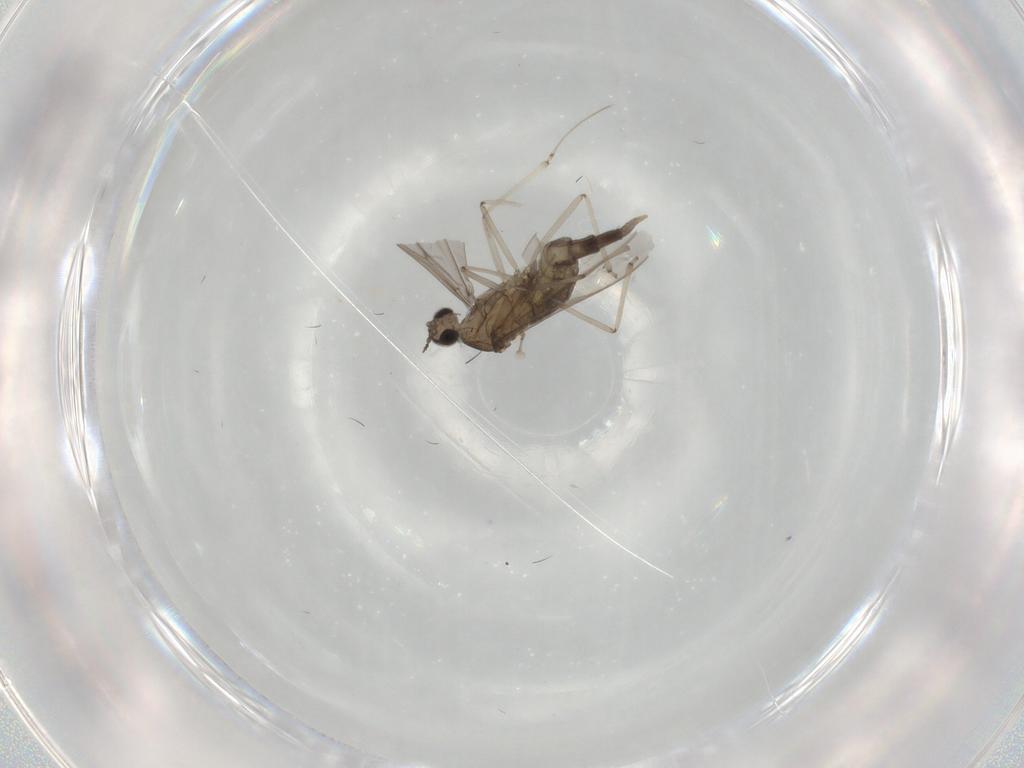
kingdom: Animalia
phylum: Arthropoda
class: Insecta
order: Diptera
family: Cecidomyiidae
